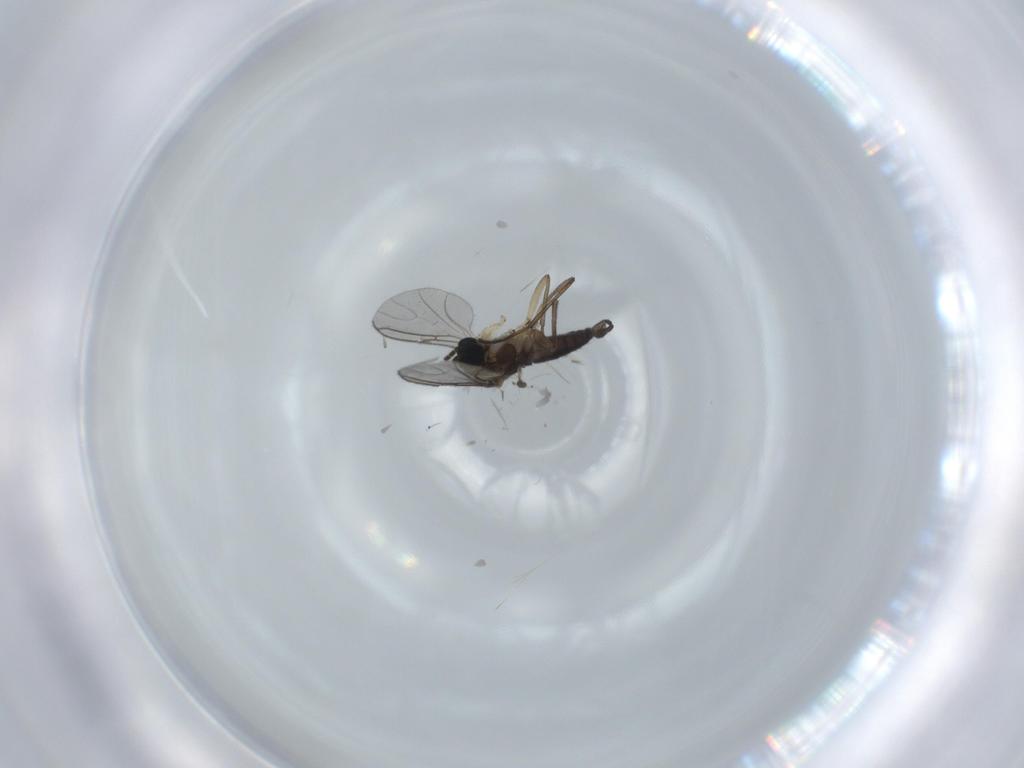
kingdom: Animalia
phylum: Arthropoda
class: Insecta
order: Diptera
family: Sciaridae
